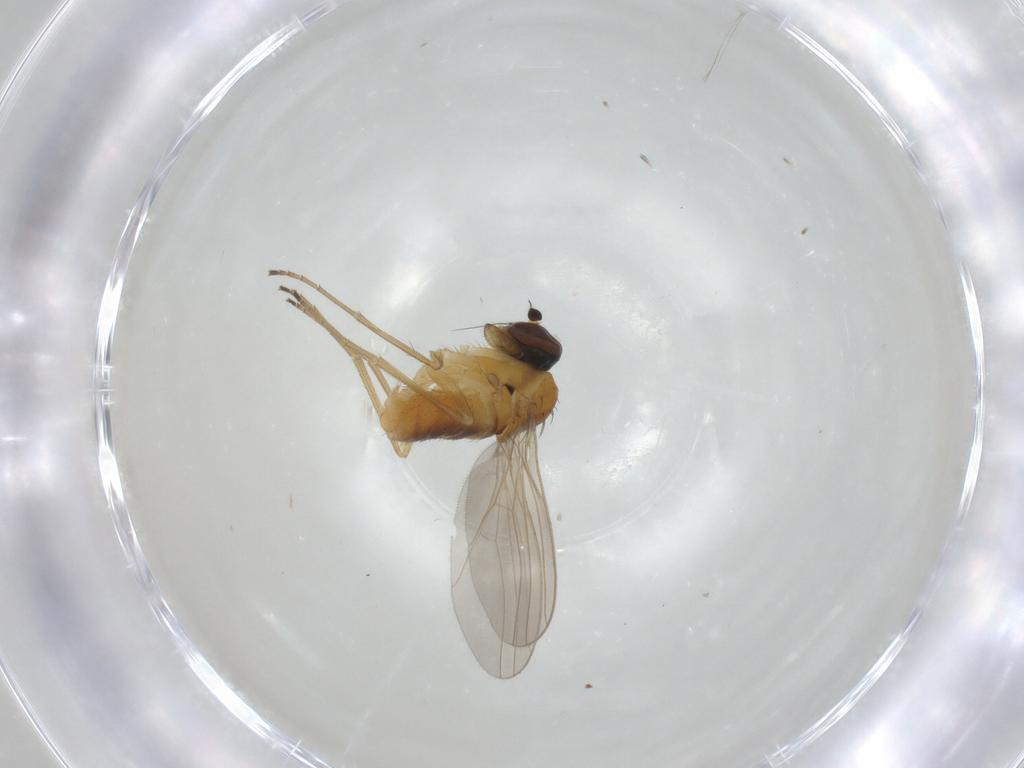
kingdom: Animalia
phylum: Arthropoda
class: Insecta
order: Diptera
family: Dolichopodidae
